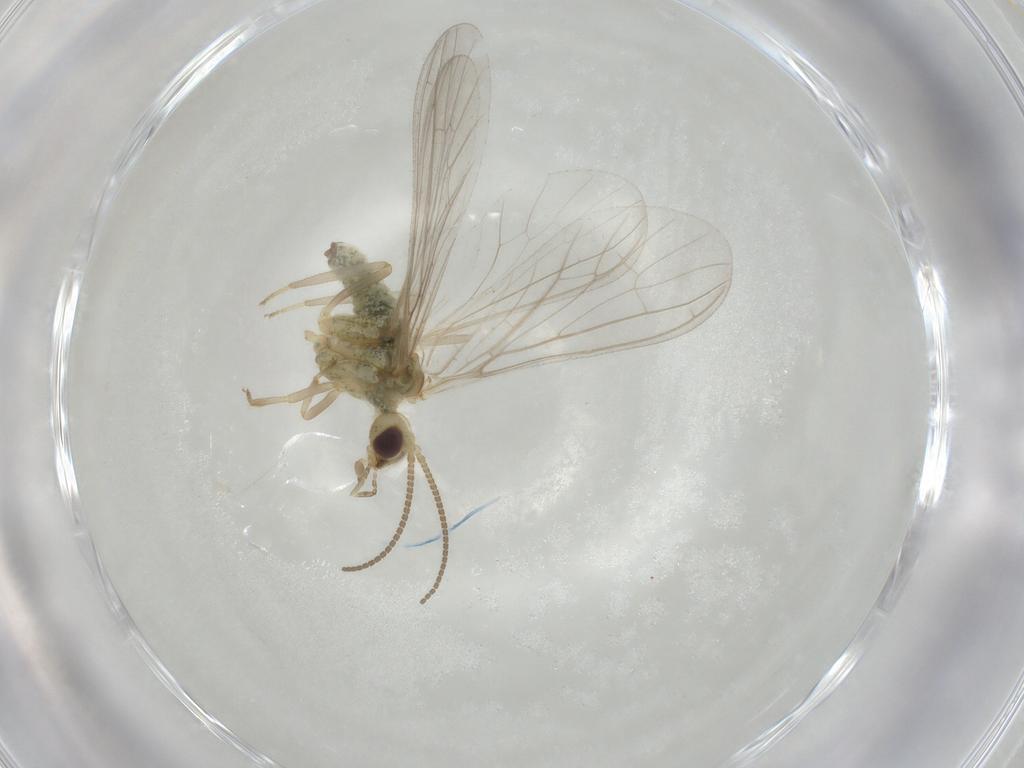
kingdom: Animalia
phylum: Arthropoda
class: Insecta
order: Neuroptera
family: Coniopterygidae
